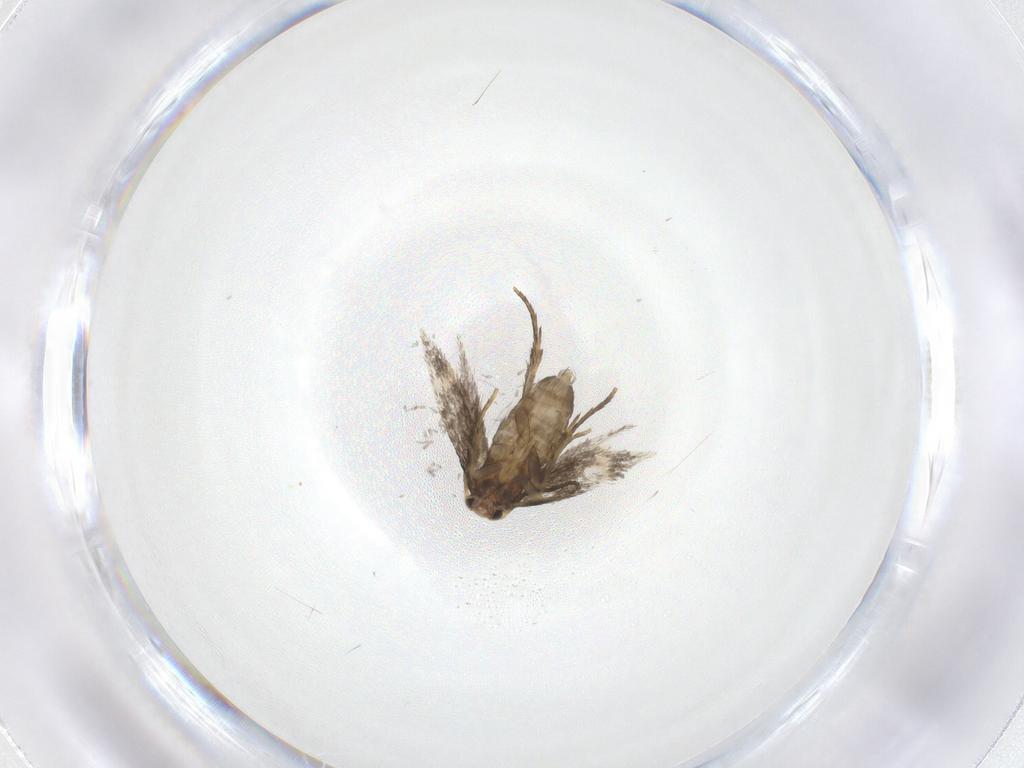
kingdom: Animalia
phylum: Arthropoda
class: Insecta
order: Lepidoptera
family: Nepticulidae
